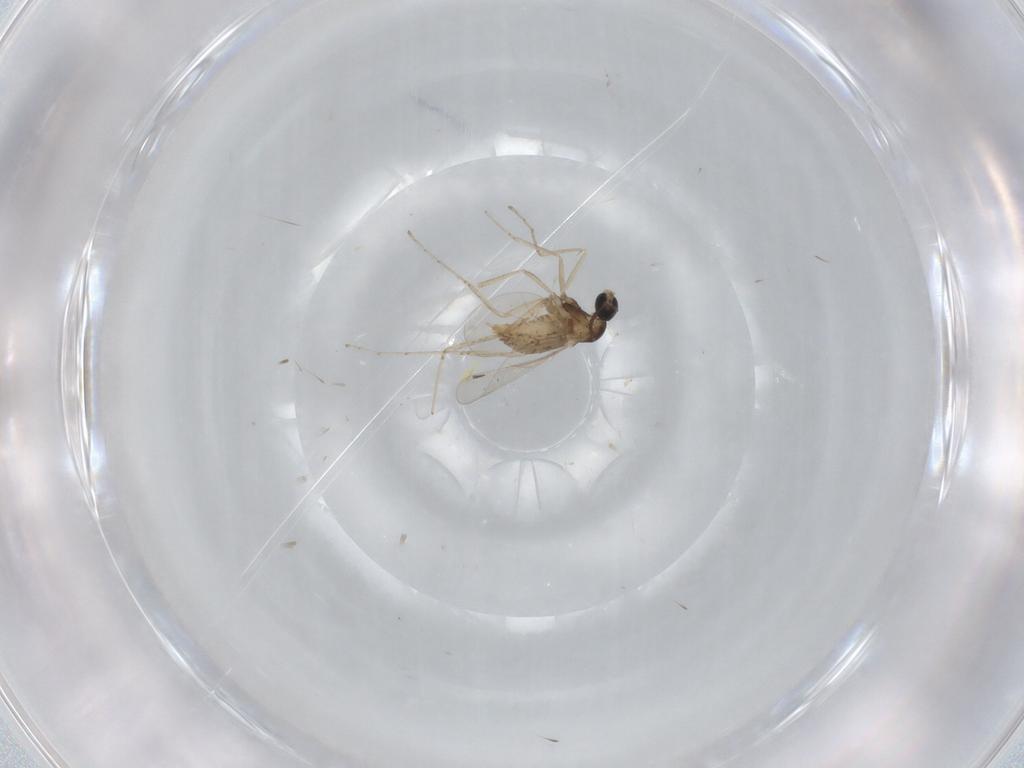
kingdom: Animalia
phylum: Arthropoda
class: Insecta
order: Diptera
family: Cecidomyiidae
